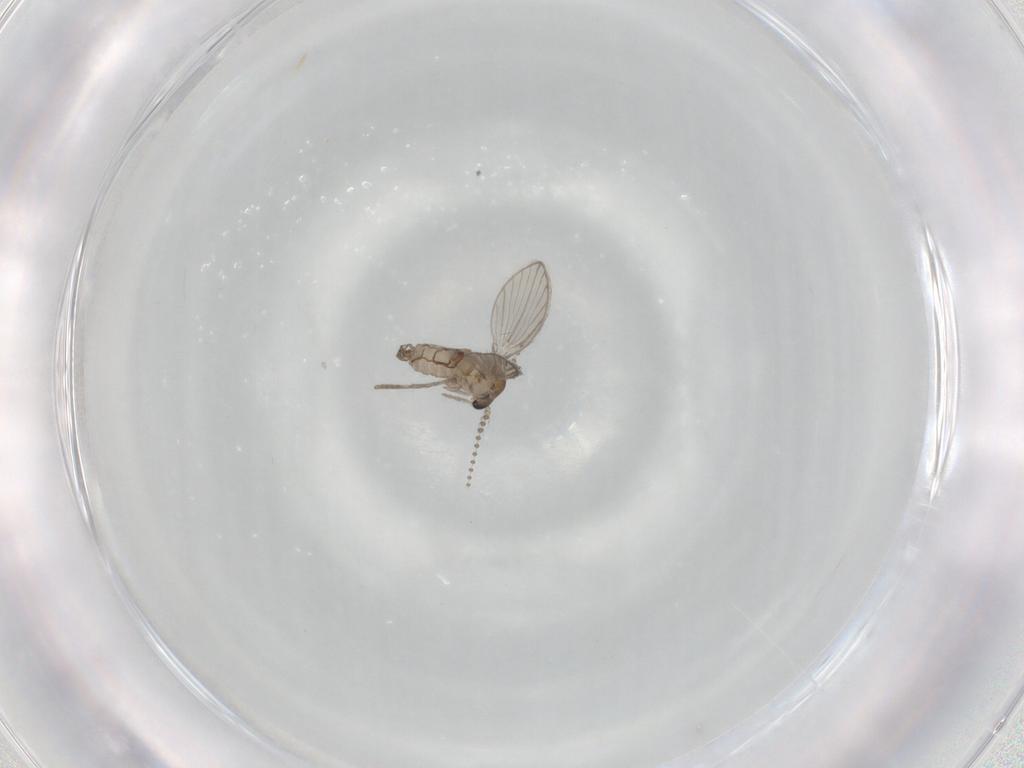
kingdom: Animalia
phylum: Arthropoda
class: Insecta
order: Diptera
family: Psychodidae
